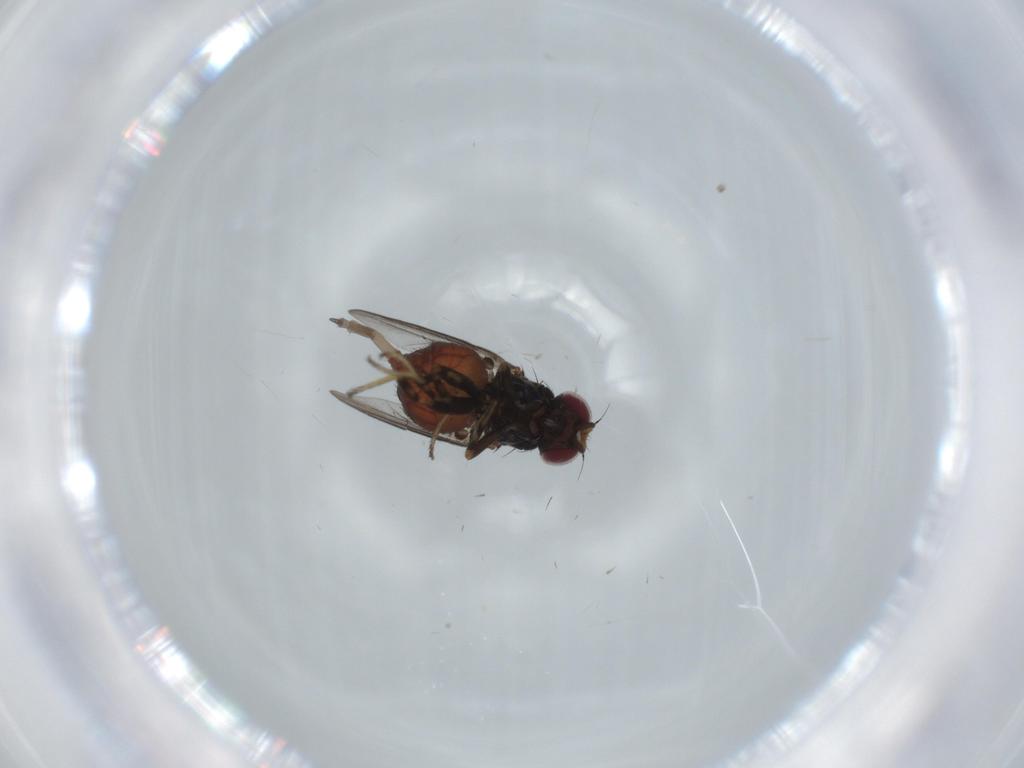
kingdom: Animalia
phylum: Arthropoda
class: Insecta
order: Diptera
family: Chloropidae
